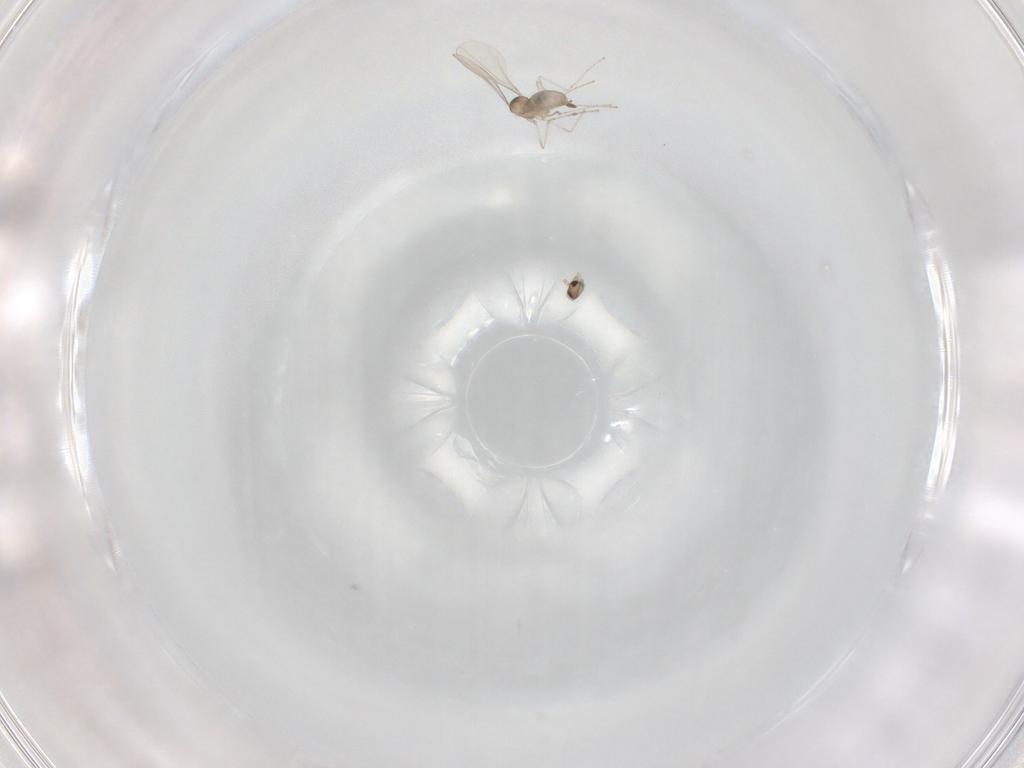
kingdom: Animalia
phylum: Arthropoda
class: Insecta
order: Diptera
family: Cecidomyiidae
